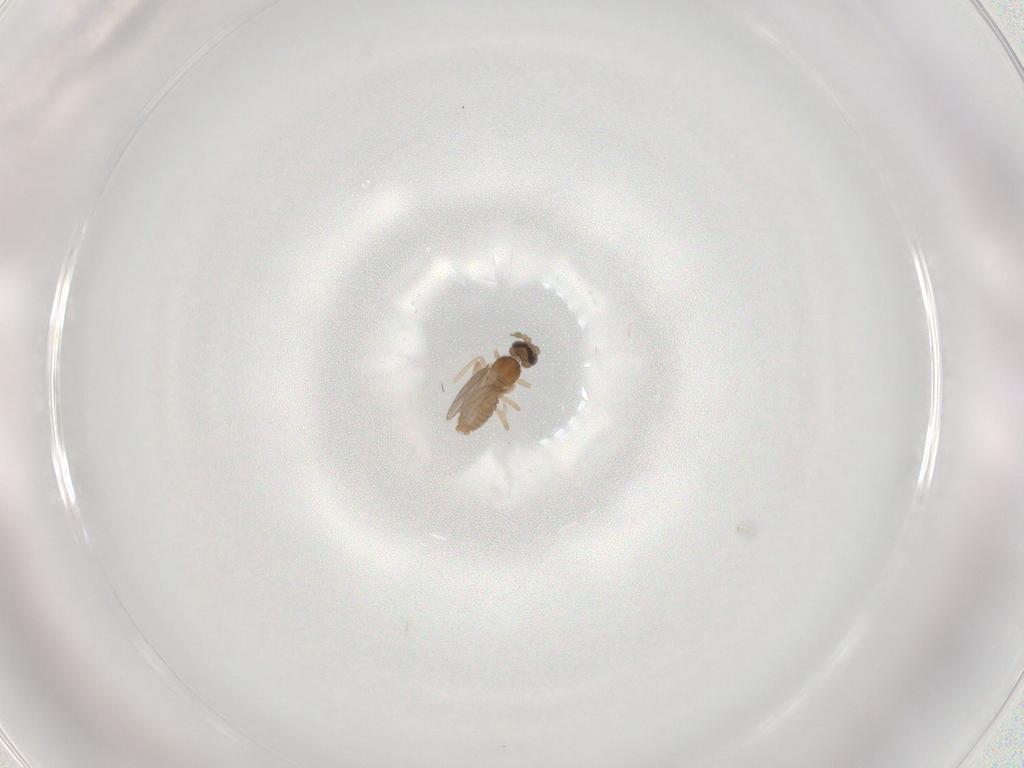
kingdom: Animalia
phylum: Arthropoda
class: Insecta
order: Diptera
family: Cecidomyiidae
